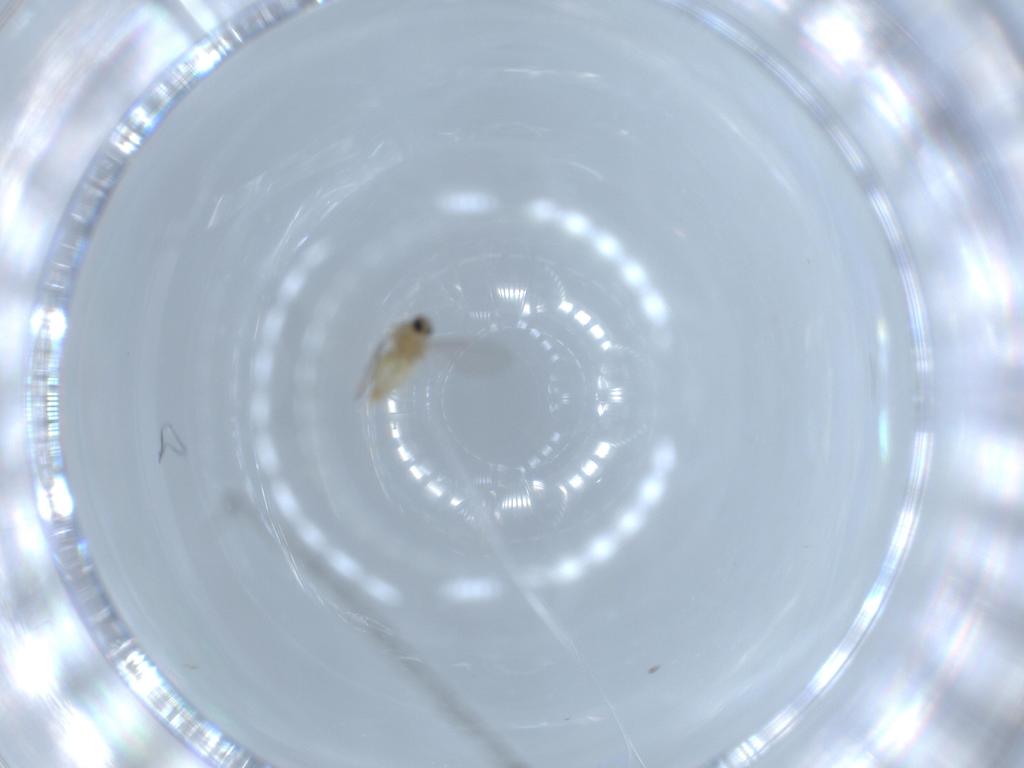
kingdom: Animalia
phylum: Arthropoda
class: Insecta
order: Diptera
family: Cecidomyiidae
